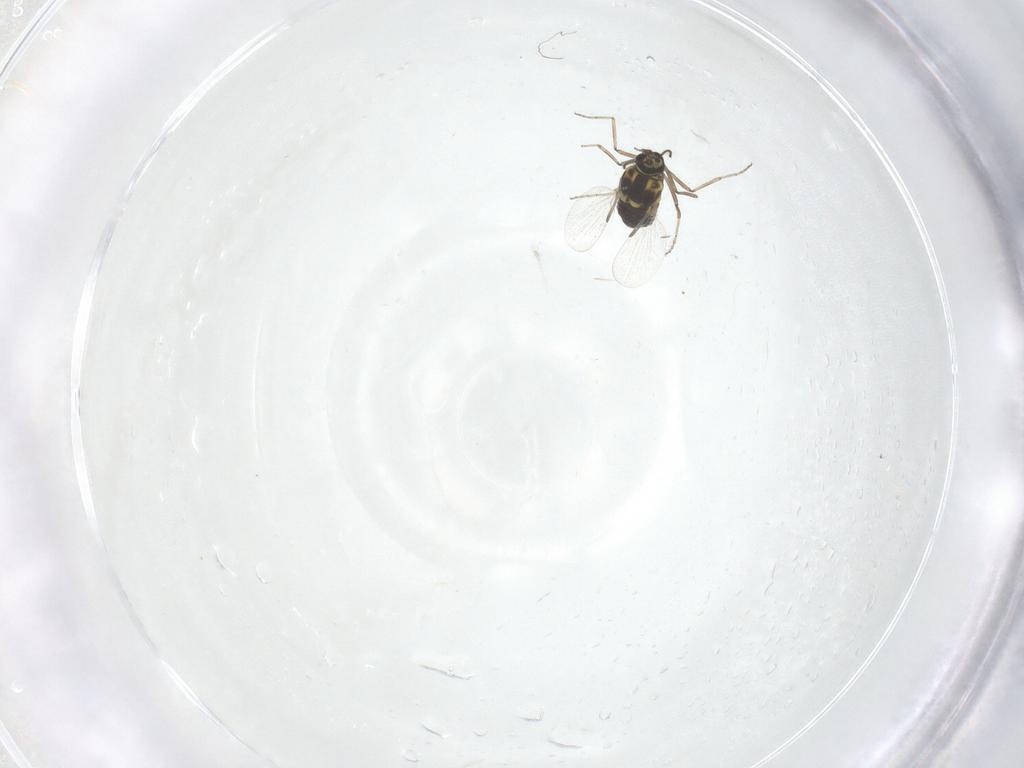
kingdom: Animalia
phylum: Arthropoda
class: Insecta
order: Diptera
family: Ceratopogonidae
